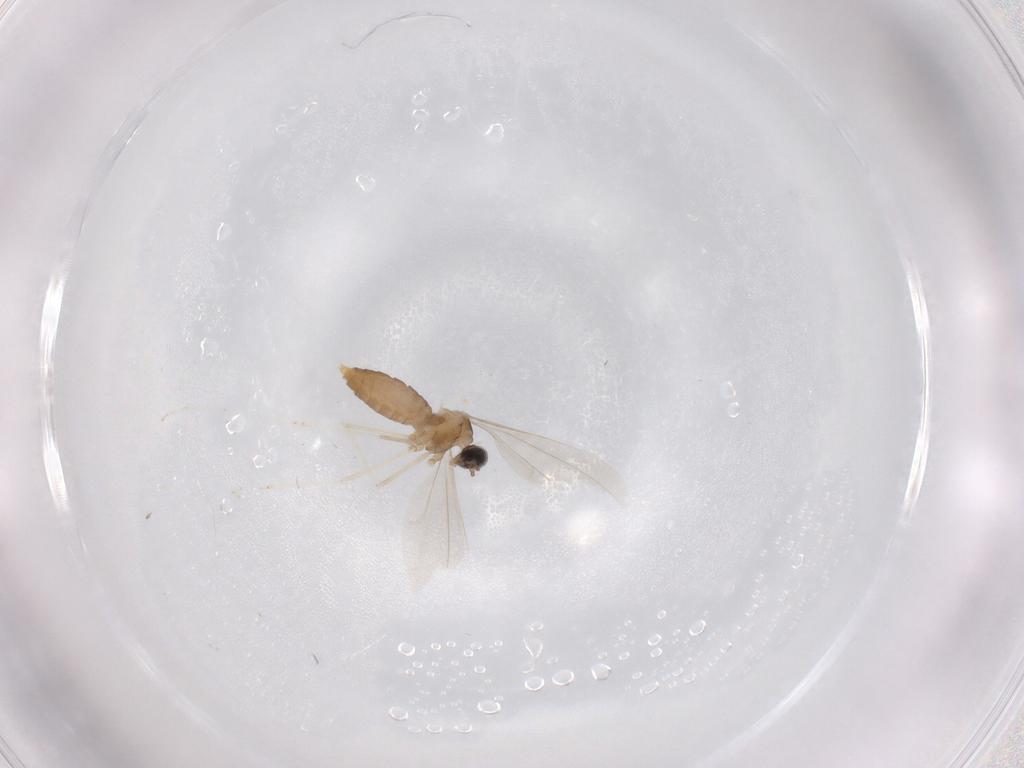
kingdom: Animalia
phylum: Arthropoda
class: Insecta
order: Diptera
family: Cecidomyiidae
